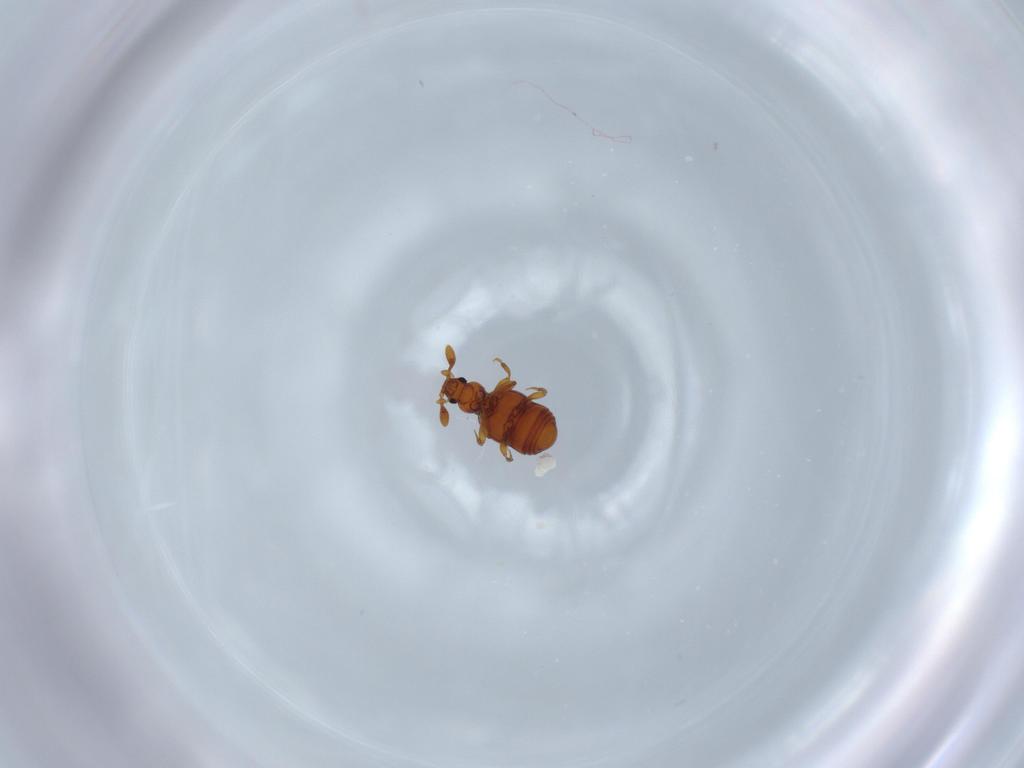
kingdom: Animalia
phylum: Arthropoda
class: Insecta
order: Coleoptera
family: Staphylinidae
